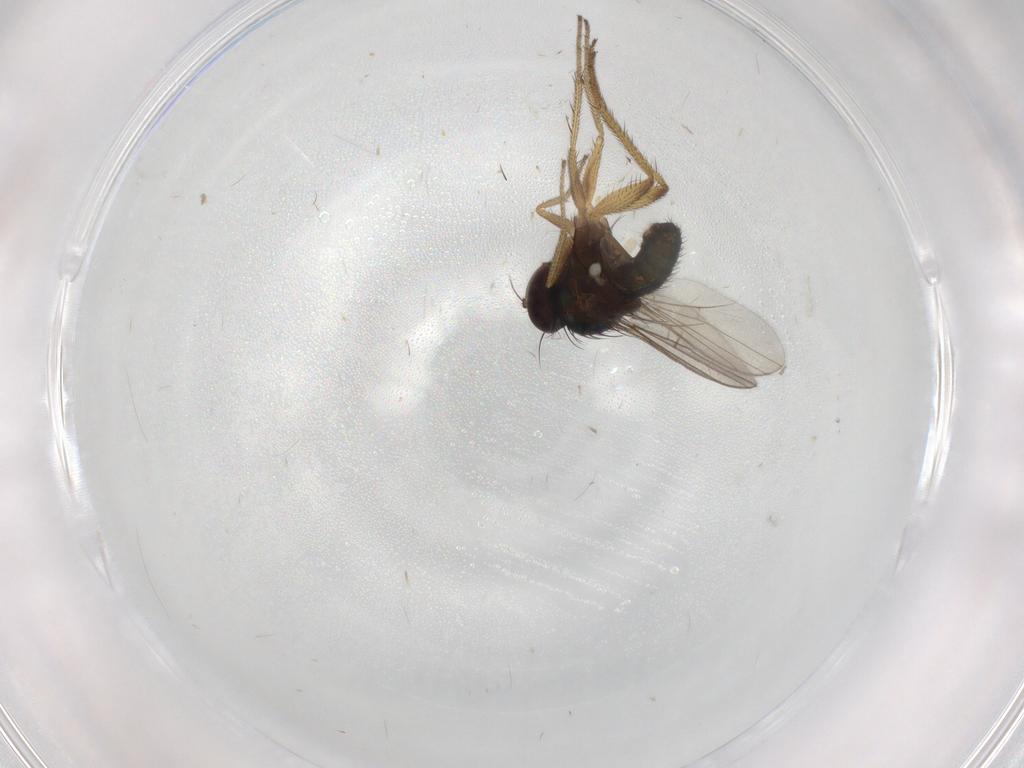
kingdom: Animalia
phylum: Arthropoda
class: Insecta
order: Diptera
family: Dolichopodidae
